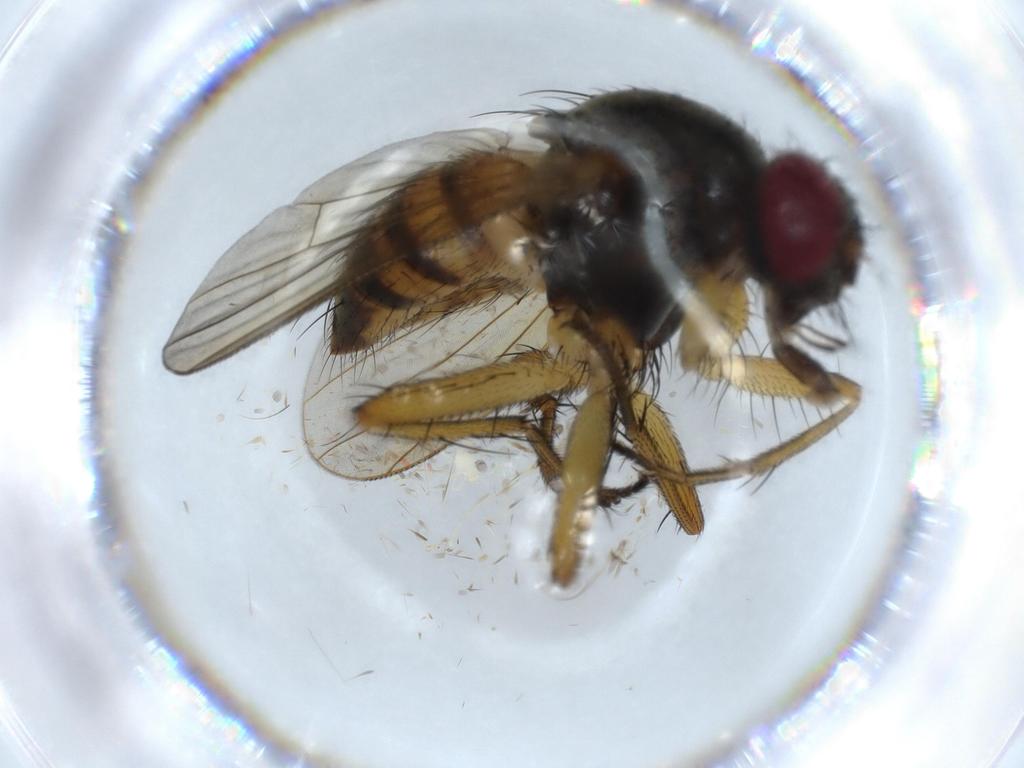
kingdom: Animalia
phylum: Arthropoda
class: Insecta
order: Diptera
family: Muscidae
